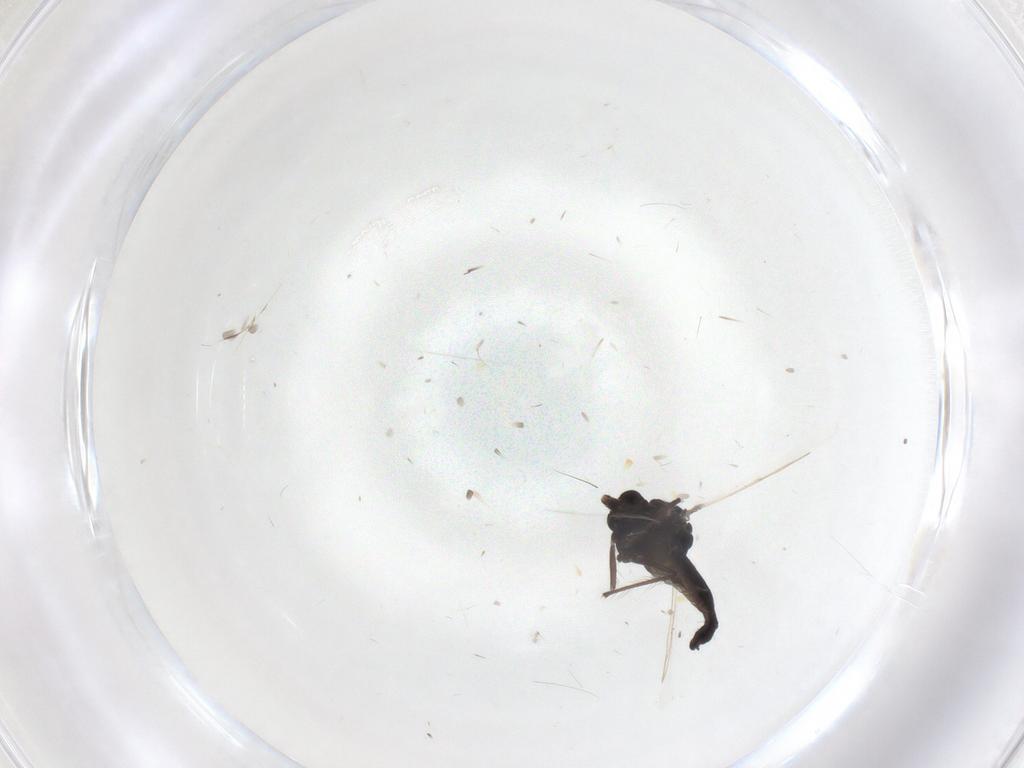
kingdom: Animalia
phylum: Arthropoda
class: Insecta
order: Diptera
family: Chironomidae
